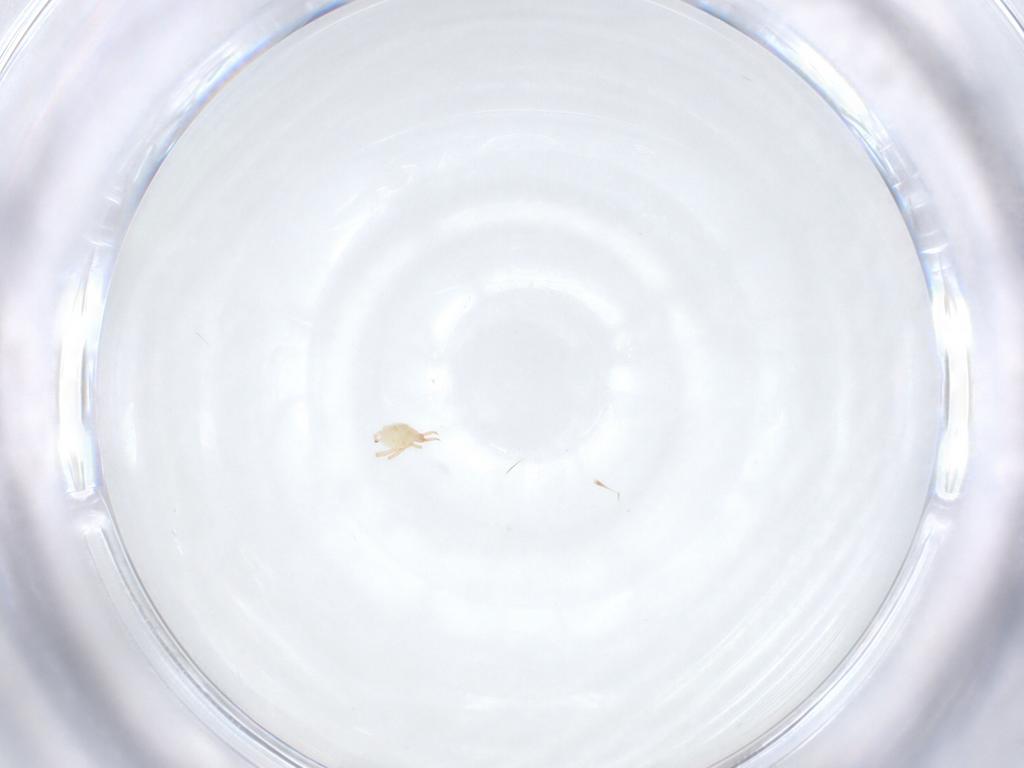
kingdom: Animalia
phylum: Arthropoda
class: Arachnida
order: Trombidiformes
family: Cunaxidae
